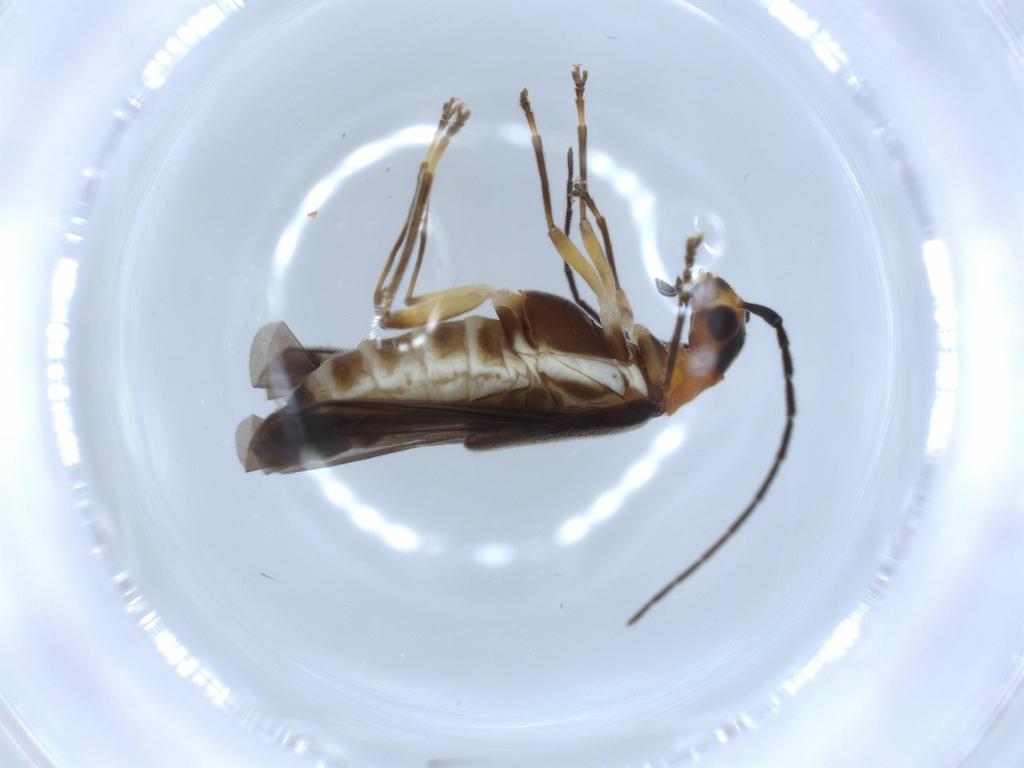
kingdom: Animalia
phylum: Arthropoda
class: Insecta
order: Coleoptera
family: Cantharidae
